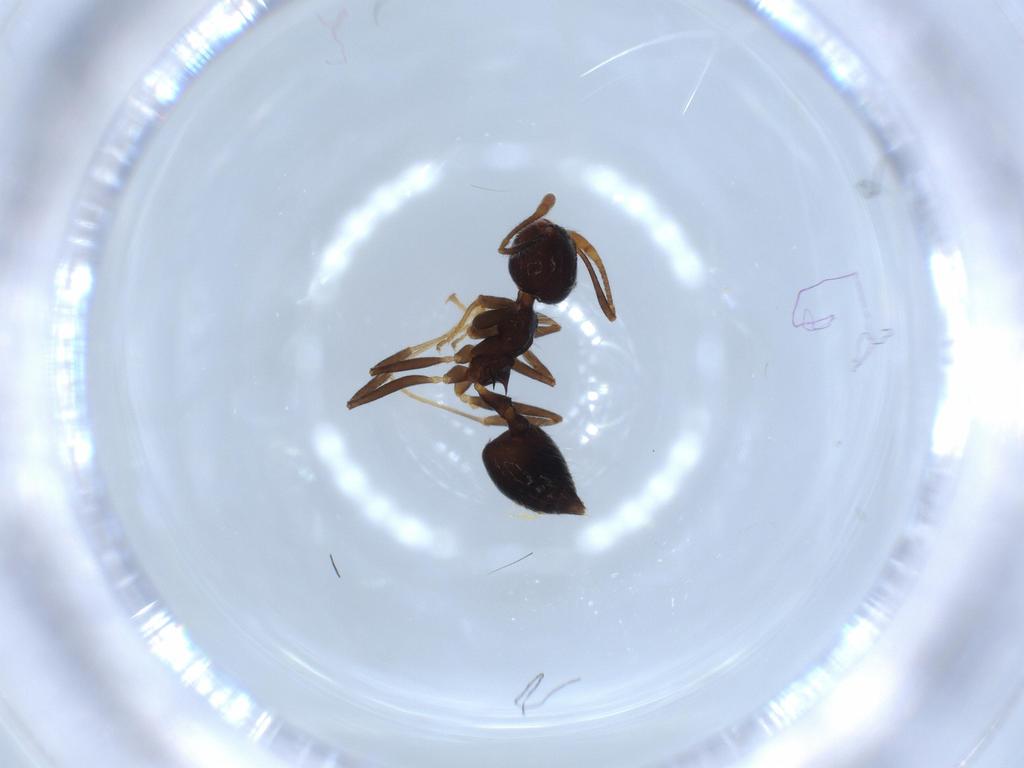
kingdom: Animalia
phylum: Arthropoda
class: Insecta
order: Hymenoptera
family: Formicidae
